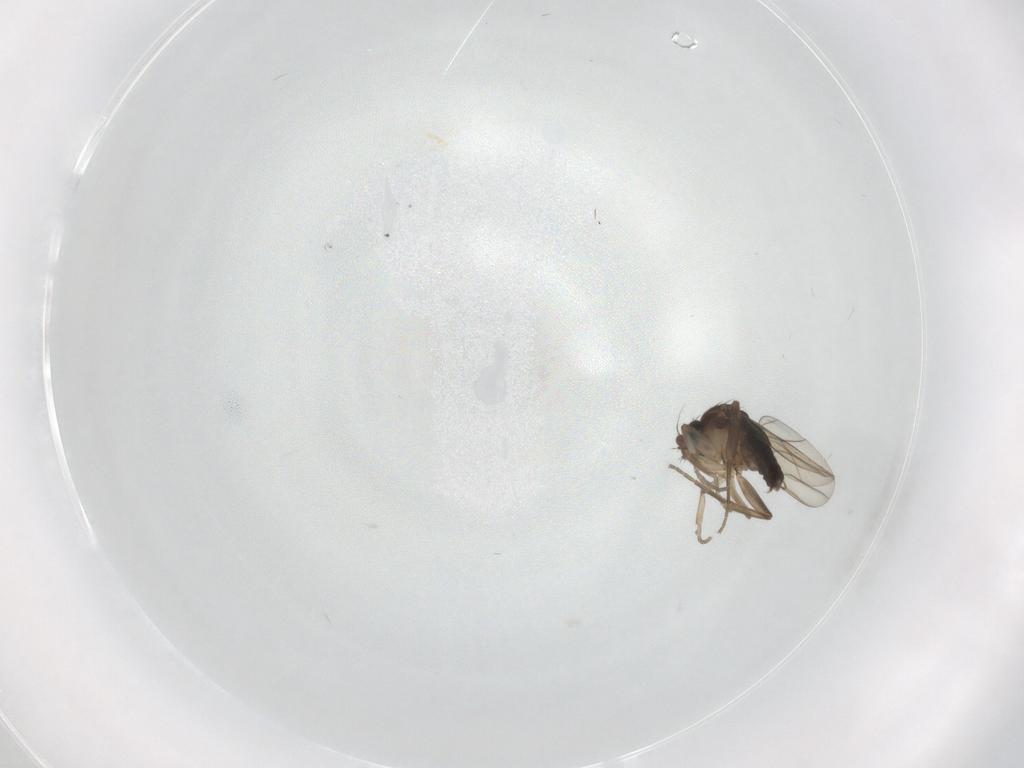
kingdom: Animalia
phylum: Arthropoda
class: Insecta
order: Diptera
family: Phoridae
